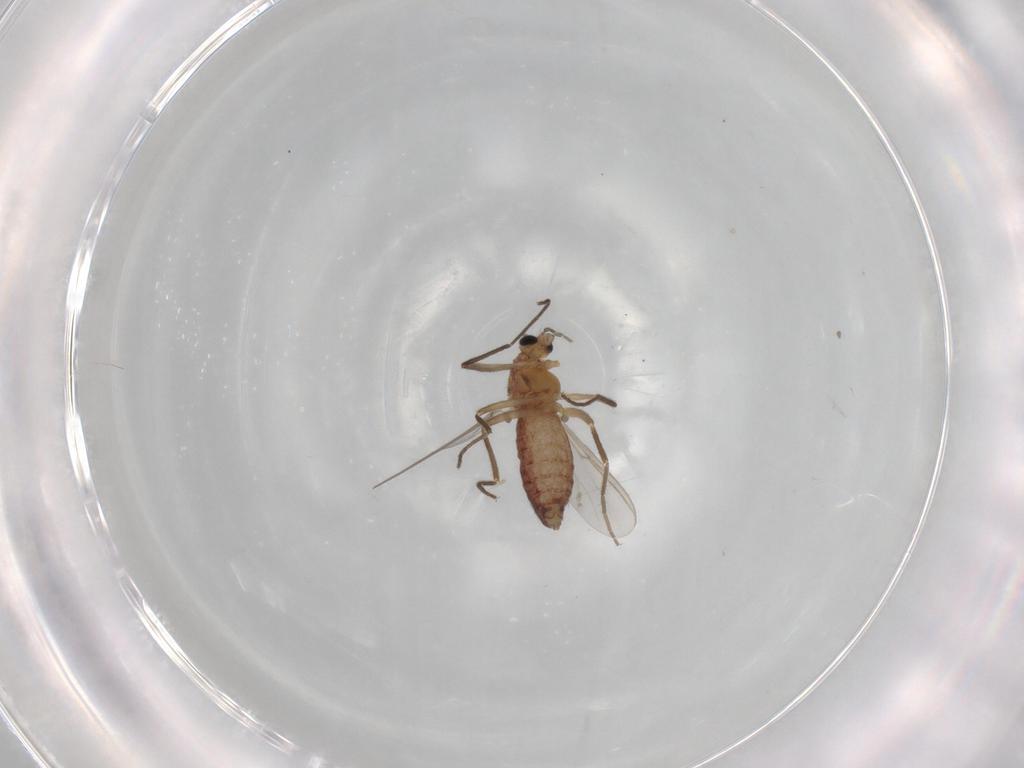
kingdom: Animalia
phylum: Arthropoda
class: Insecta
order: Diptera
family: Chironomidae
